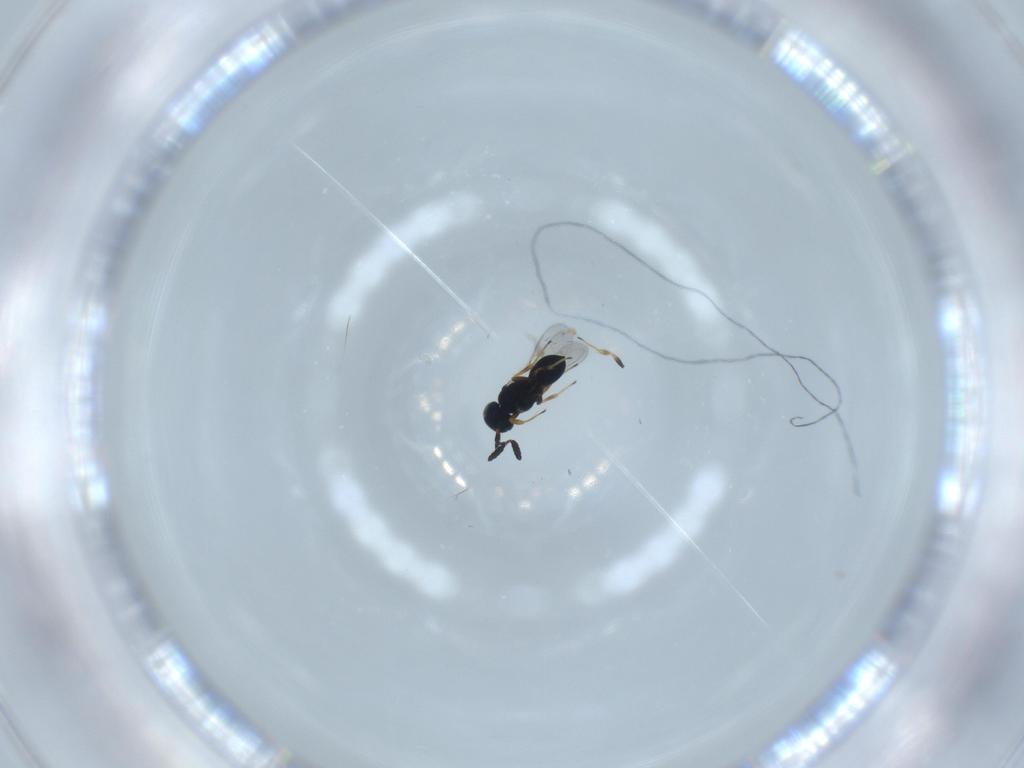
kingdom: Animalia
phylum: Arthropoda
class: Insecta
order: Hymenoptera
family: Scelionidae
